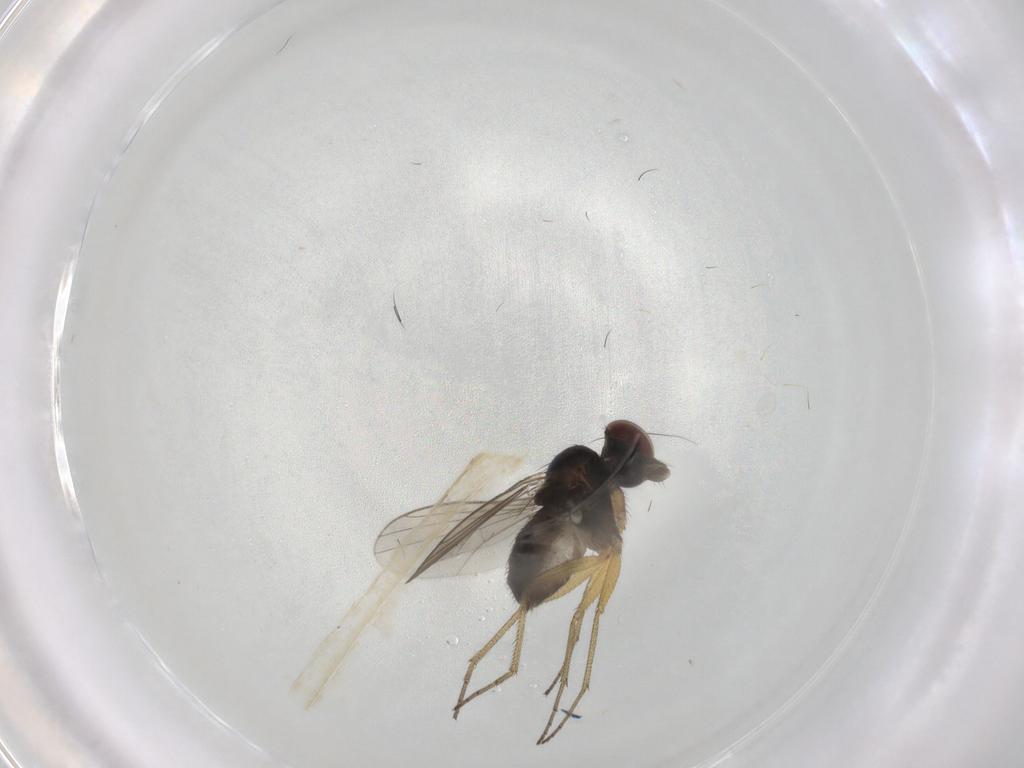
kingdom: Animalia
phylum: Arthropoda
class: Insecta
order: Diptera
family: Dolichopodidae
